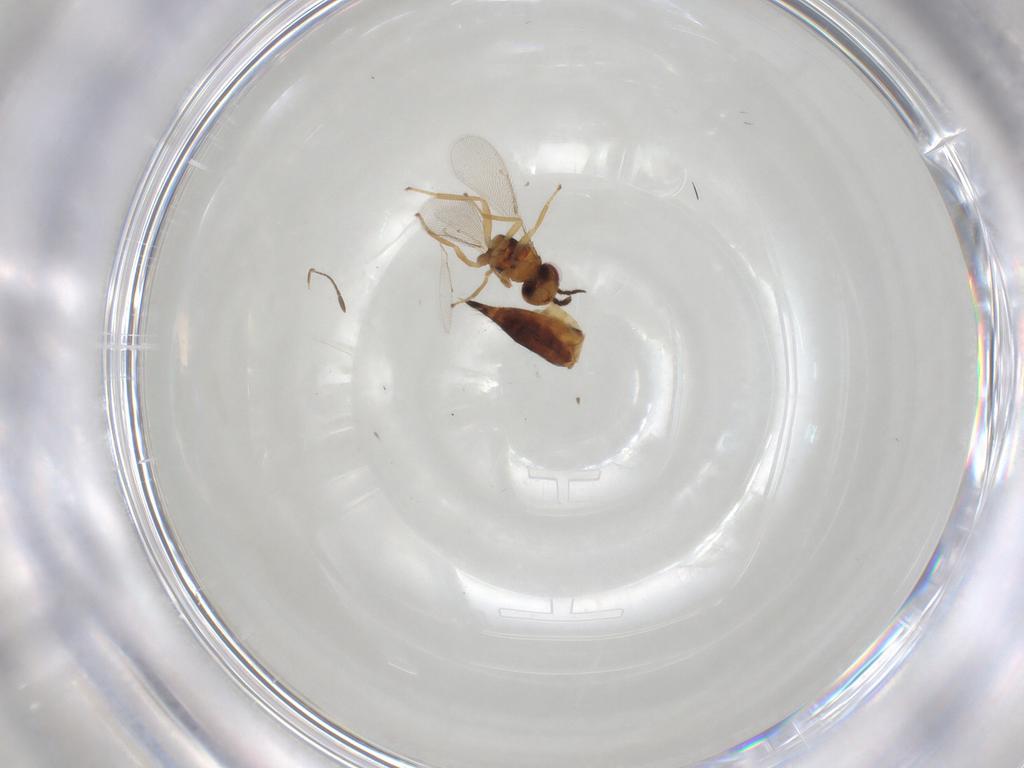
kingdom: Animalia
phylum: Arthropoda
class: Insecta
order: Hymenoptera
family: Eulophidae
